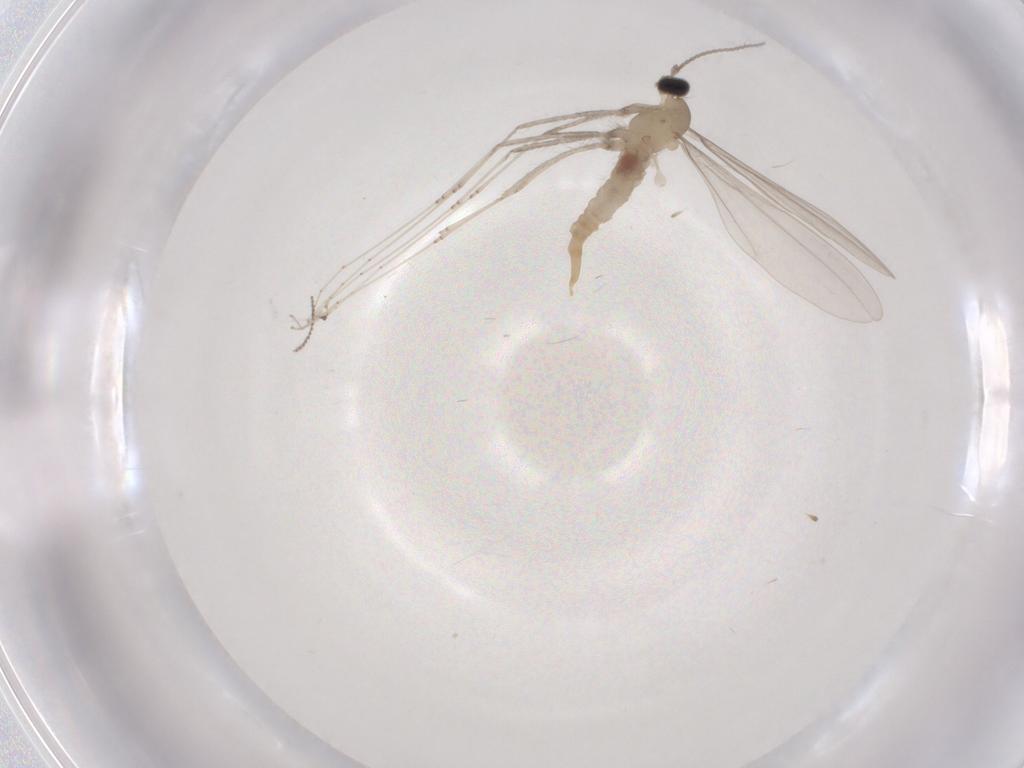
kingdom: Animalia
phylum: Arthropoda
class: Insecta
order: Diptera
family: Cecidomyiidae
